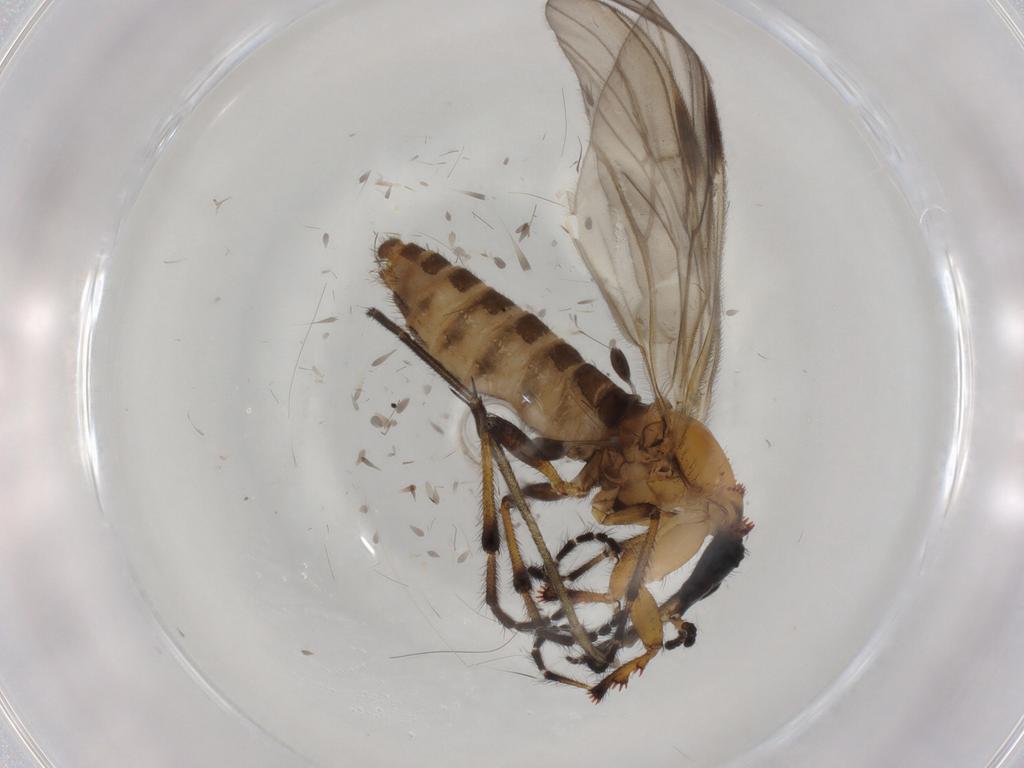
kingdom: Animalia
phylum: Arthropoda
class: Insecta
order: Diptera
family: Bibionidae
